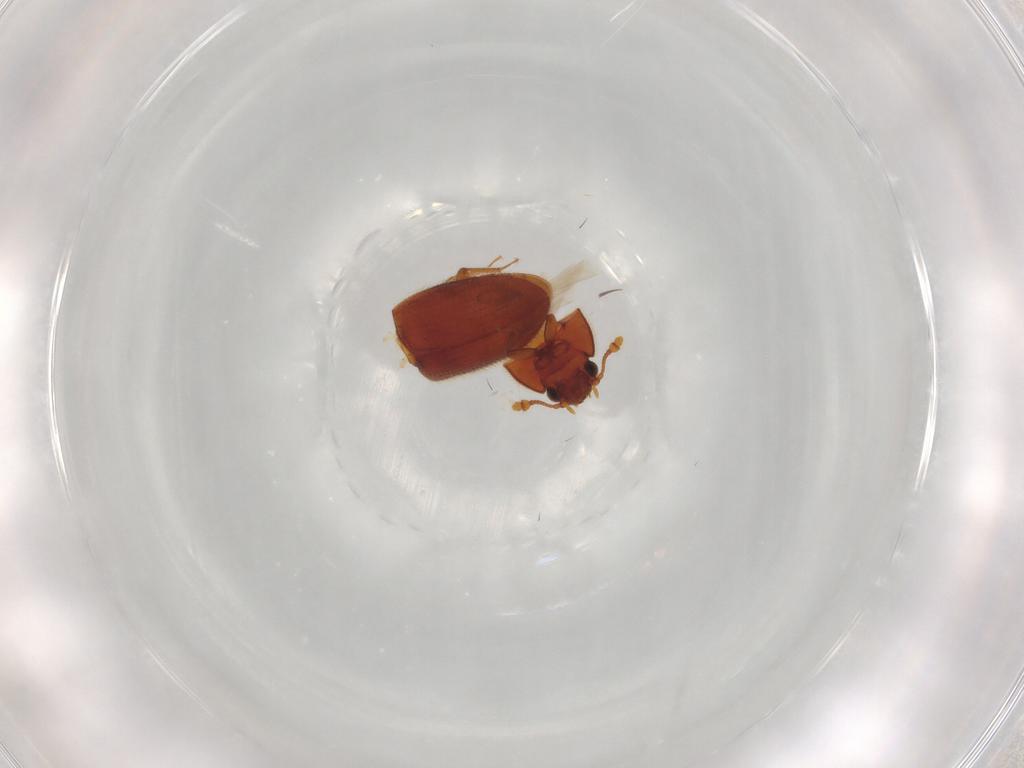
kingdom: Animalia
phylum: Arthropoda
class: Insecta
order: Coleoptera
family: Biphyllidae
